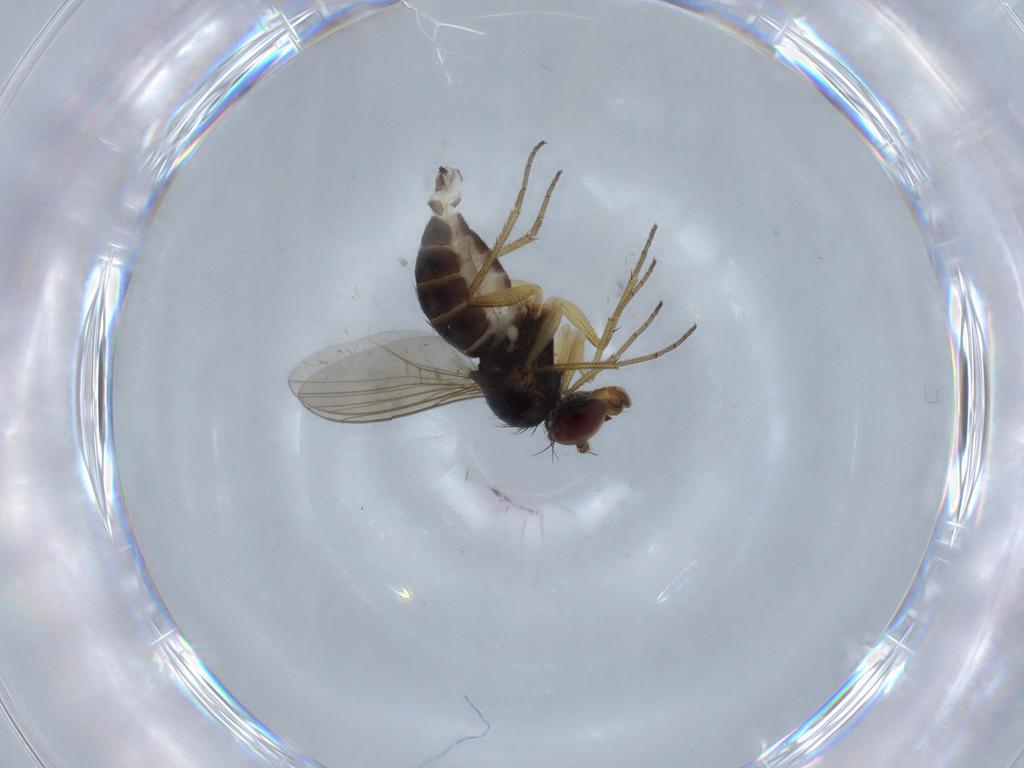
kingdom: Animalia
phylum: Arthropoda
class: Insecta
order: Diptera
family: Dolichopodidae
